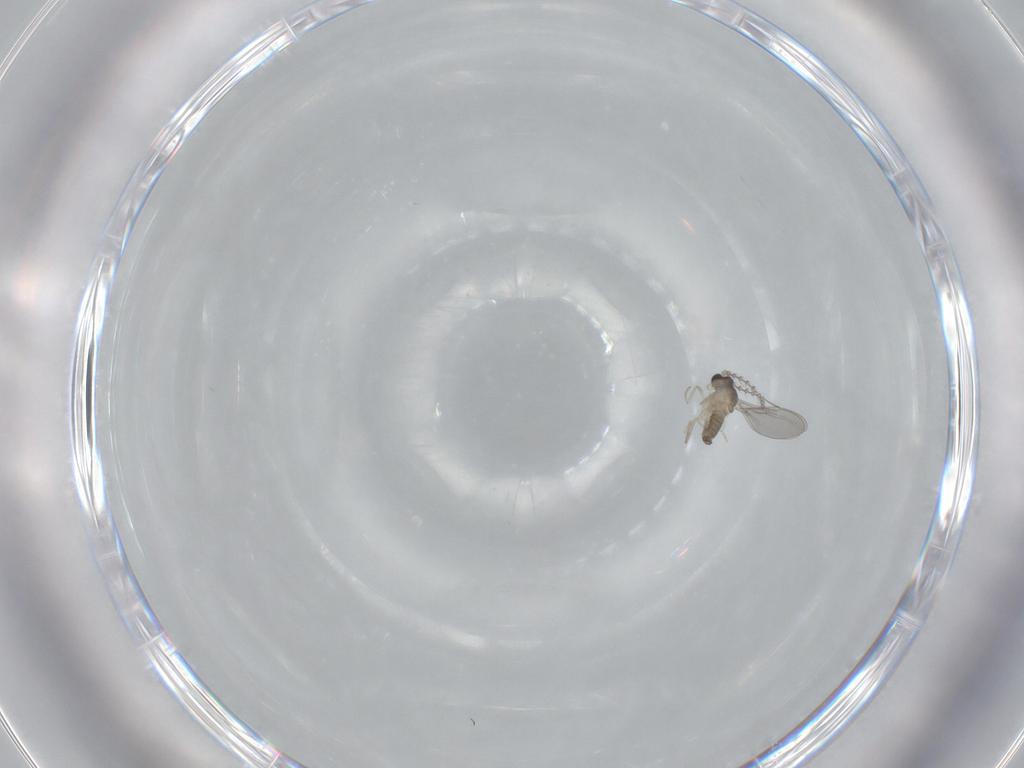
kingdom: Animalia
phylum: Arthropoda
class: Insecta
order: Diptera
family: Cecidomyiidae
